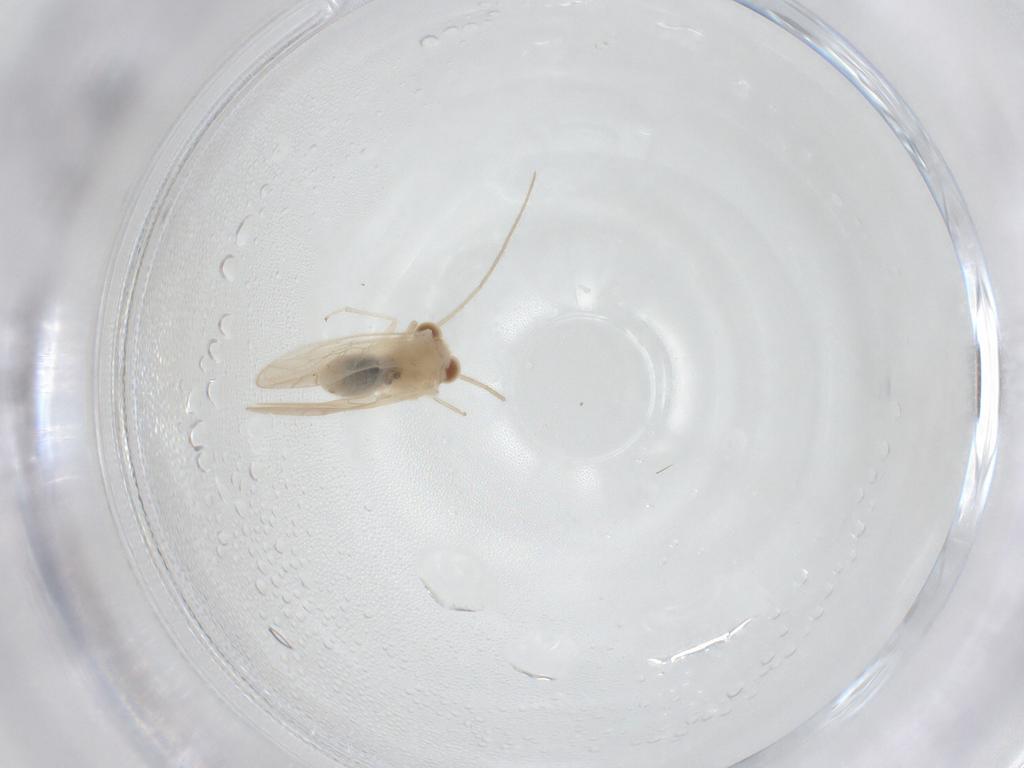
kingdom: Animalia
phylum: Arthropoda
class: Insecta
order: Psocodea
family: Caeciliusidae
